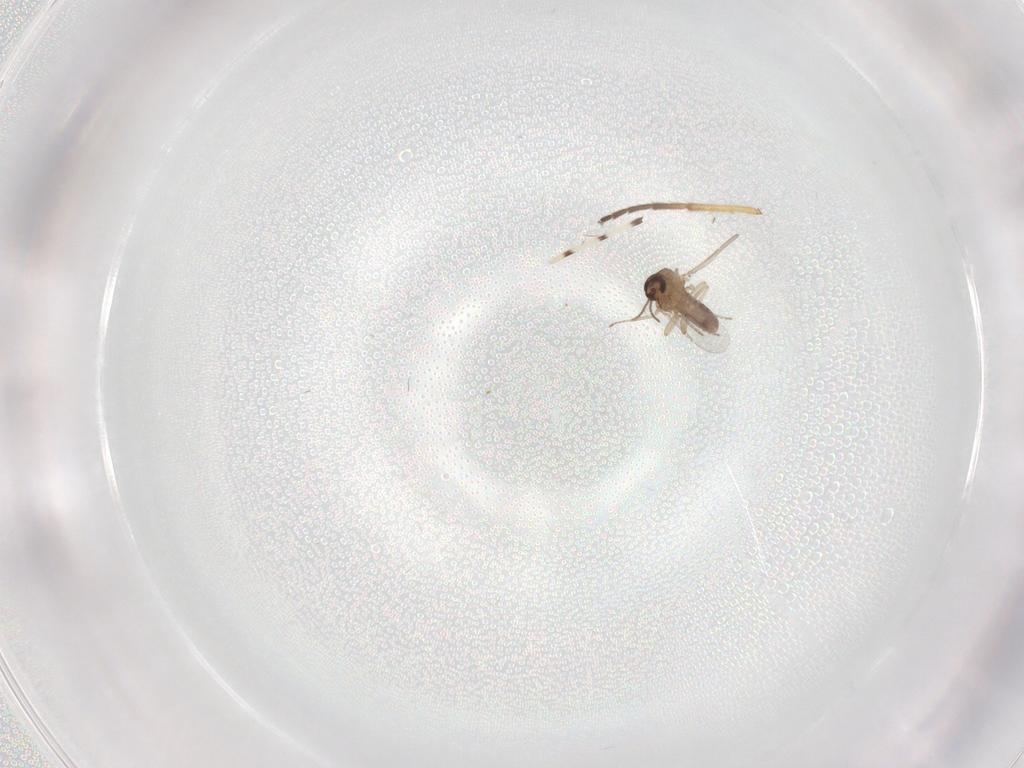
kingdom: Animalia
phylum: Arthropoda
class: Insecta
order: Diptera
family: Ceratopogonidae
